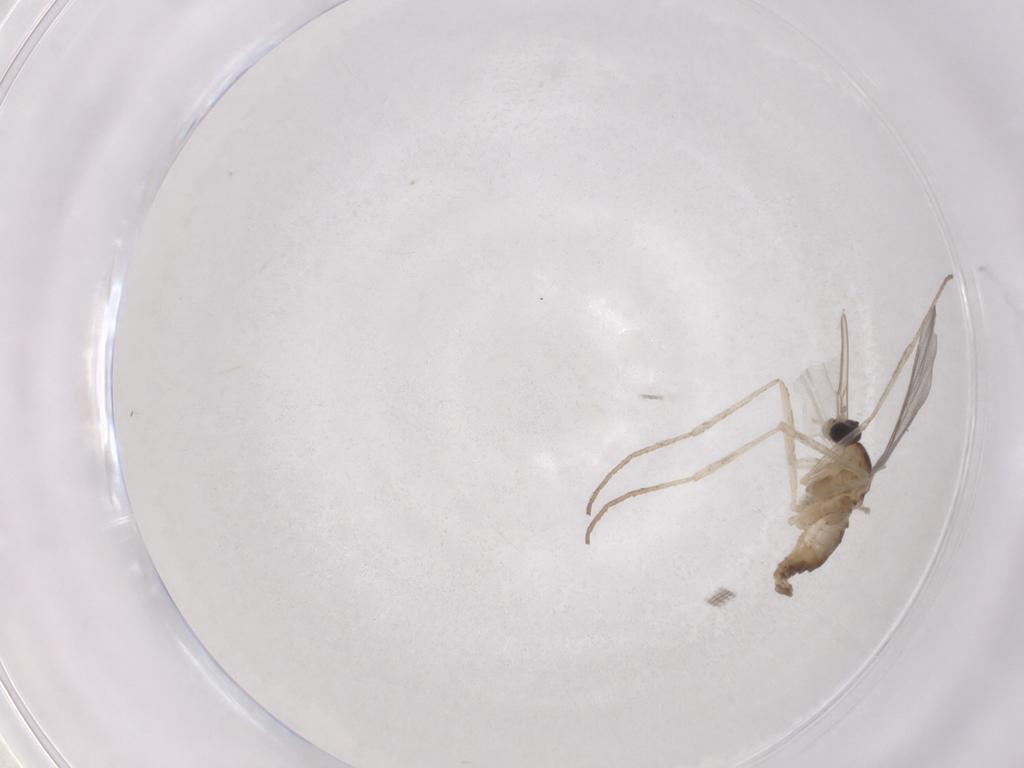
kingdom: Animalia
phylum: Arthropoda
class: Insecta
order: Diptera
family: Cecidomyiidae
